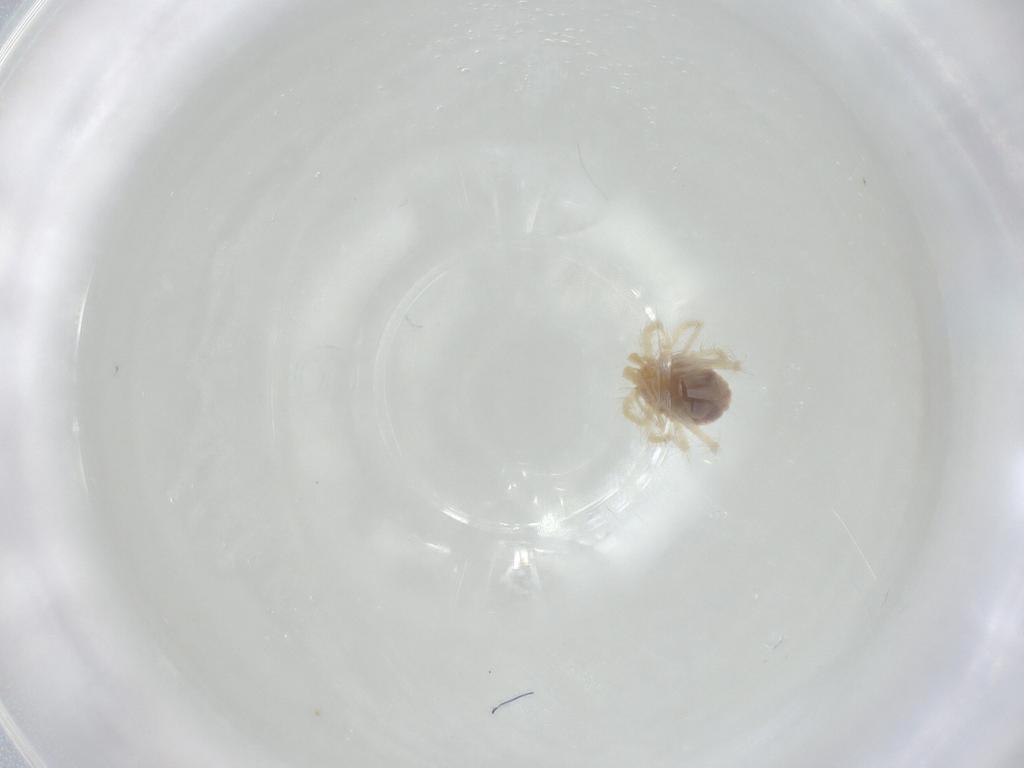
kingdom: Animalia
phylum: Arthropoda
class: Arachnida
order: Trombidiformes
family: Anystidae
